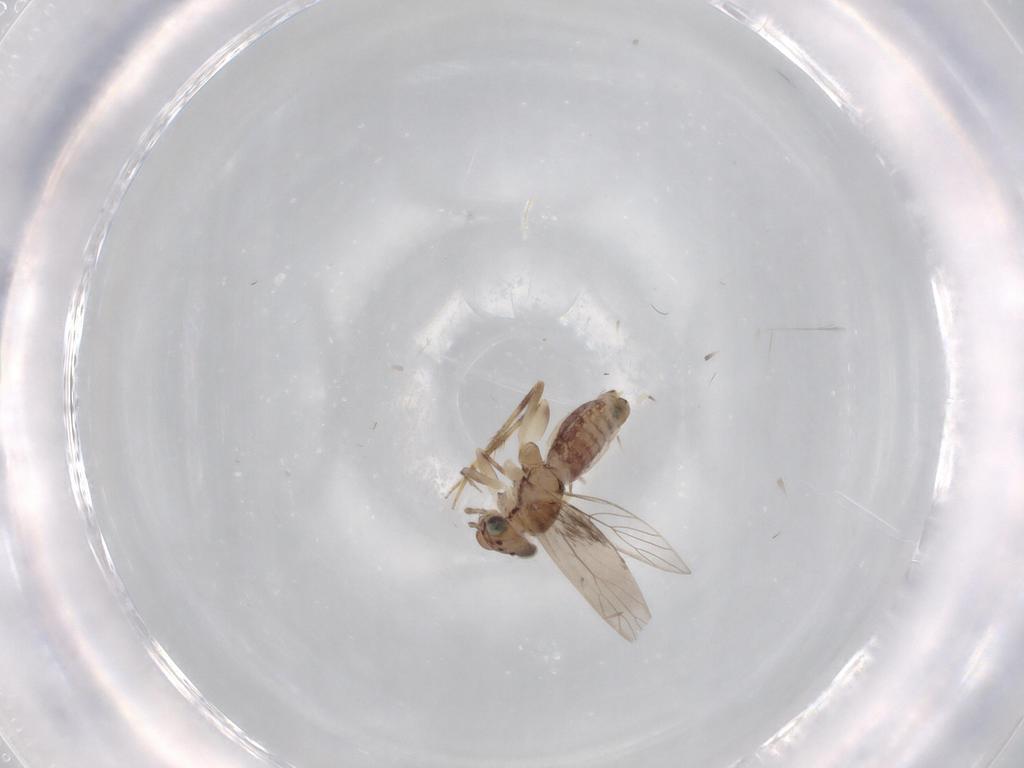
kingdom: Animalia
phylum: Arthropoda
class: Insecta
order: Psocodea
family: Lepidopsocidae
